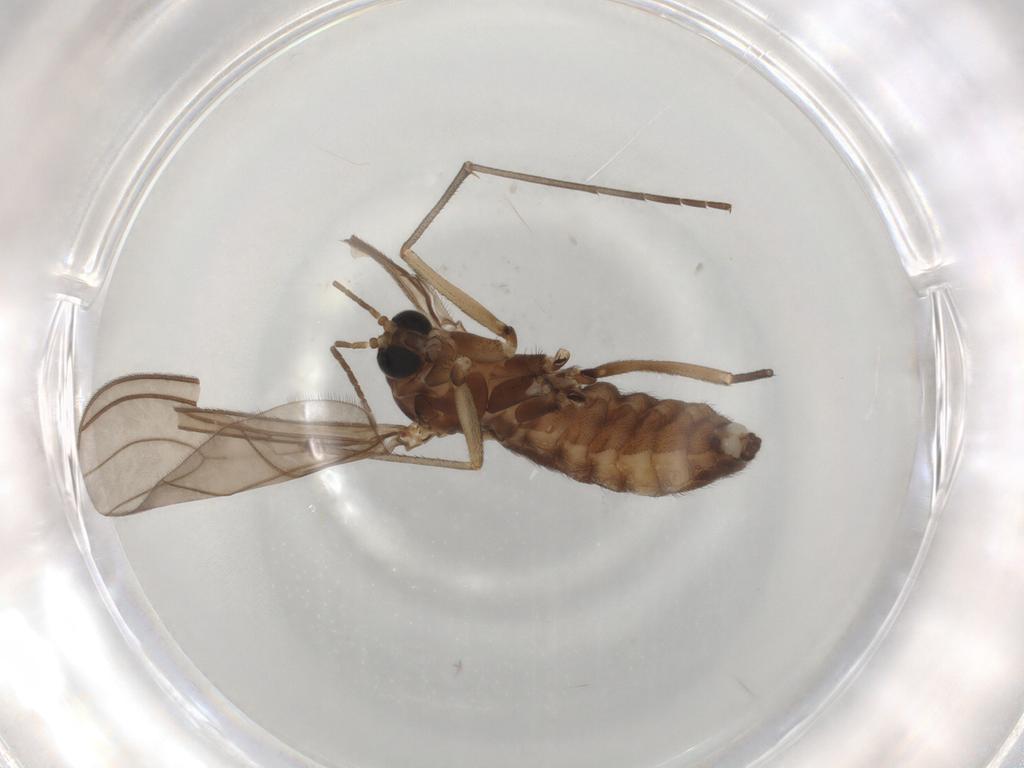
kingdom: Animalia
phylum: Arthropoda
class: Insecta
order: Diptera
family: Sciaridae
